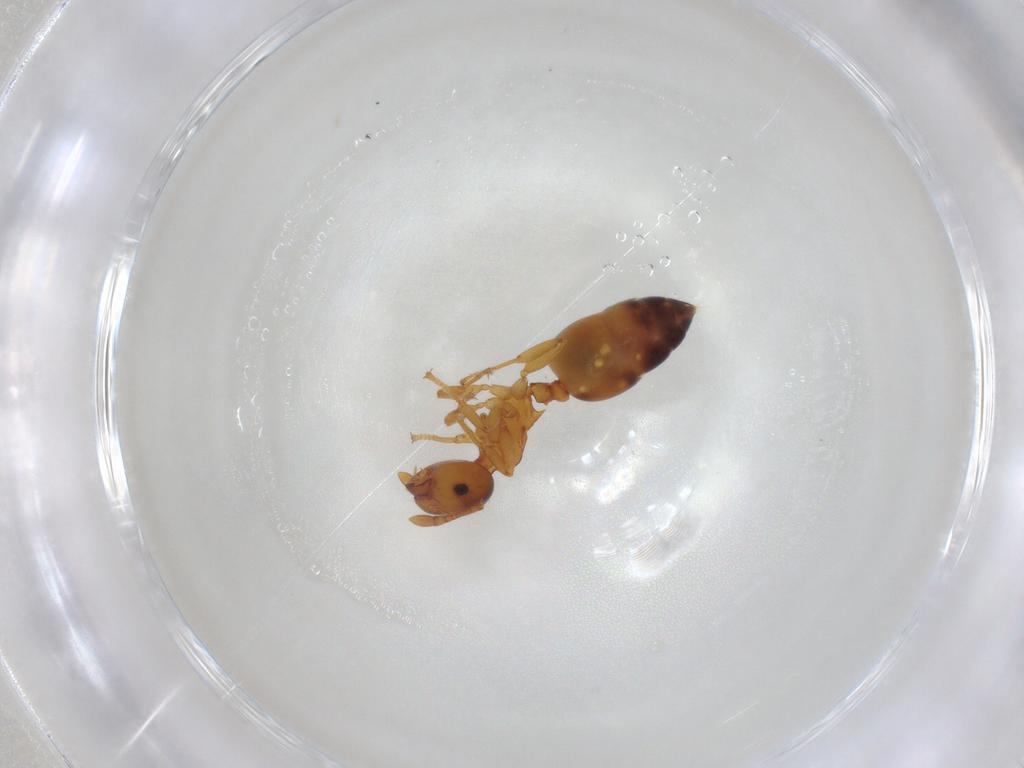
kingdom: Animalia
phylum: Arthropoda
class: Insecta
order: Hymenoptera
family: Formicidae
